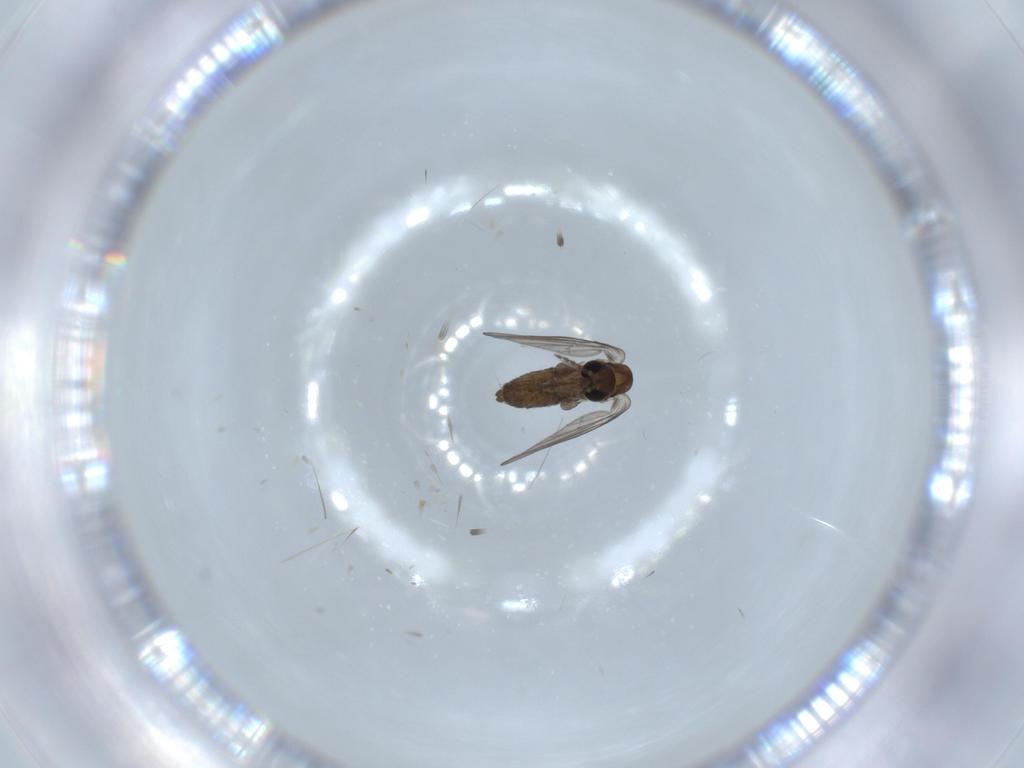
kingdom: Animalia
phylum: Arthropoda
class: Insecta
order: Diptera
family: Psychodidae
